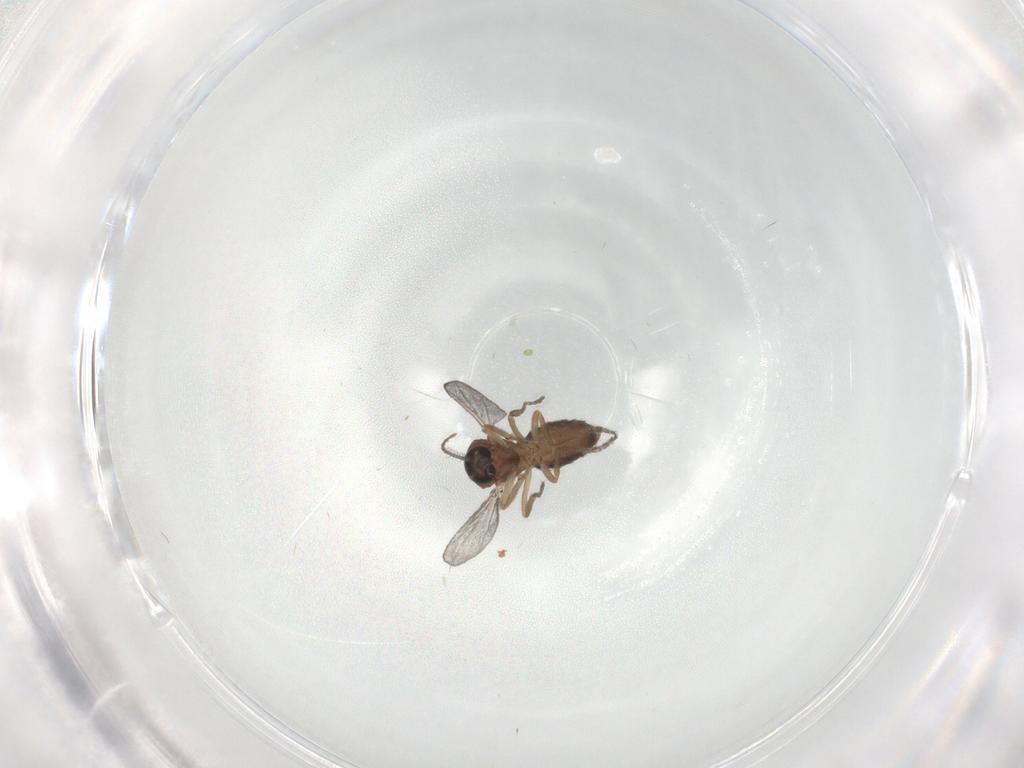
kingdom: Animalia
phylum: Arthropoda
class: Insecta
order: Diptera
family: Ceratopogonidae
